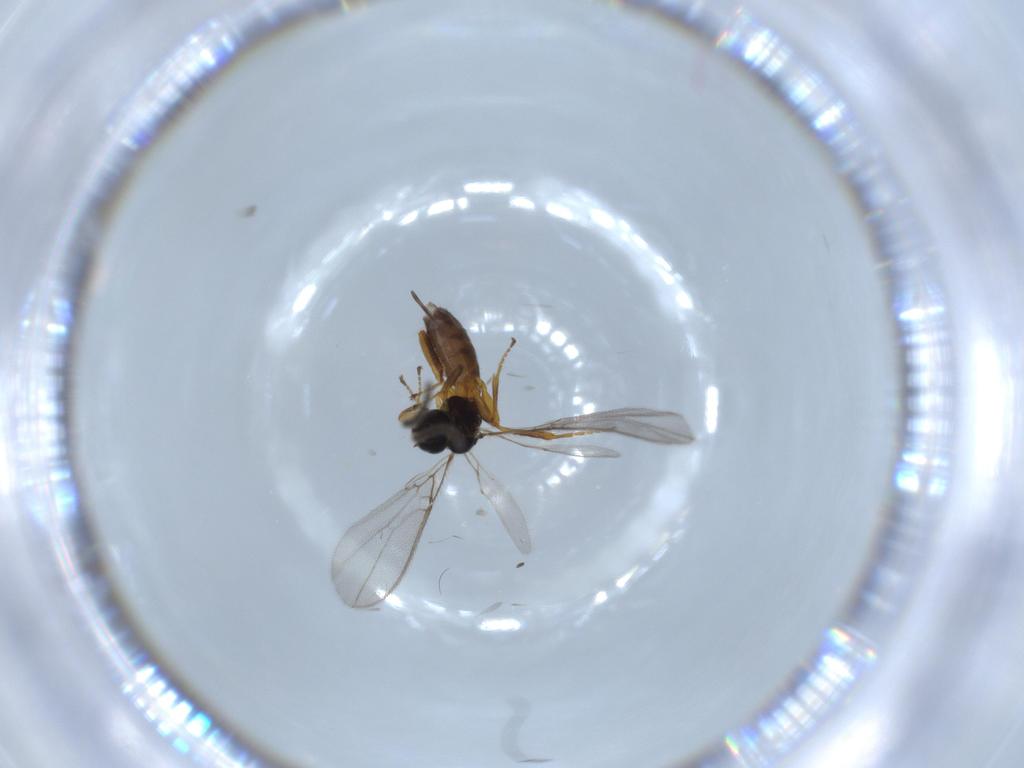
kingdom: Animalia
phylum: Arthropoda
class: Insecta
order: Hymenoptera
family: Braconidae
